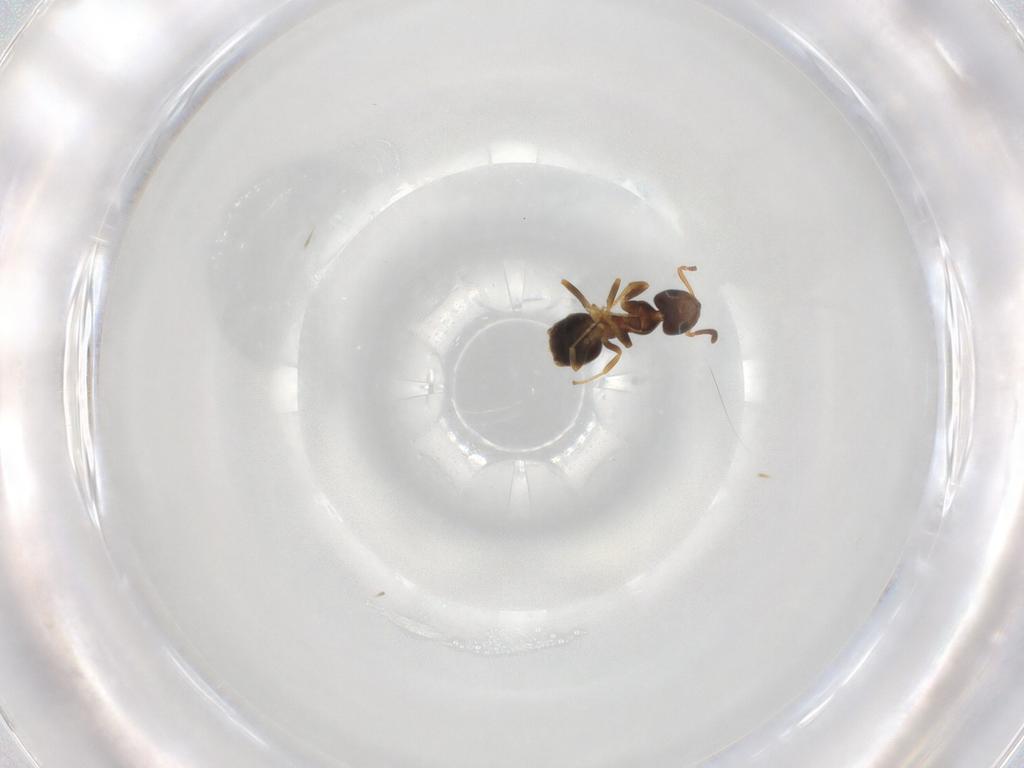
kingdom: Animalia
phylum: Arthropoda
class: Insecta
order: Hymenoptera
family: Formicidae
